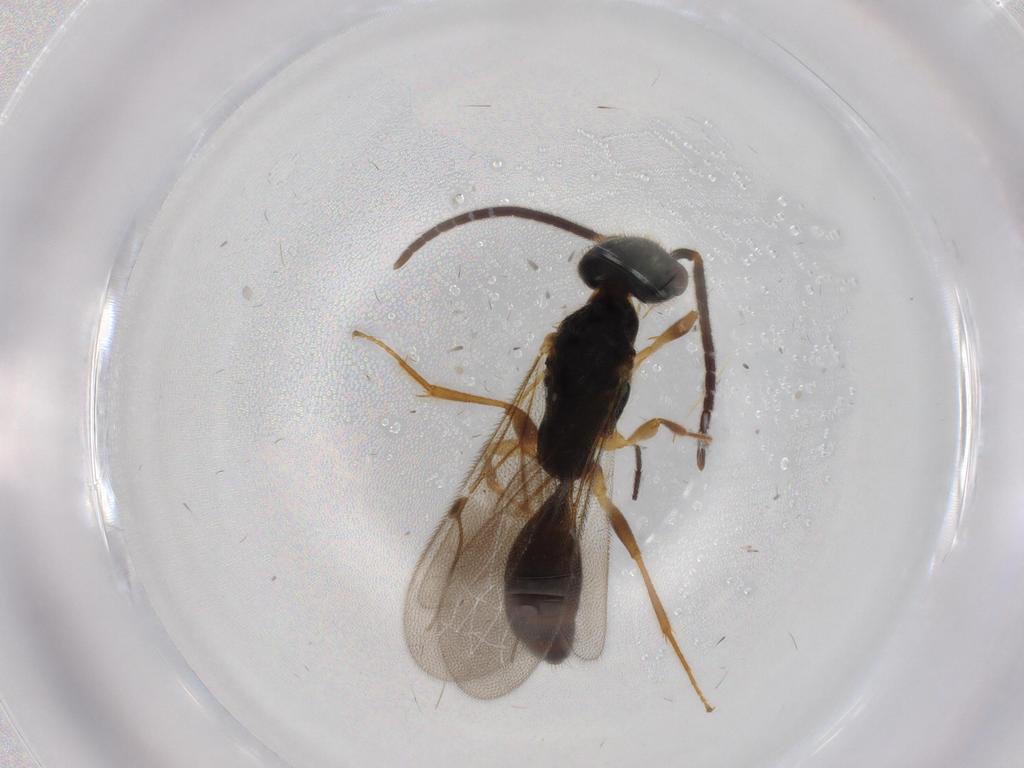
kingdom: Animalia
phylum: Arthropoda
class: Insecta
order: Hymenoptera
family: Bethylidae
